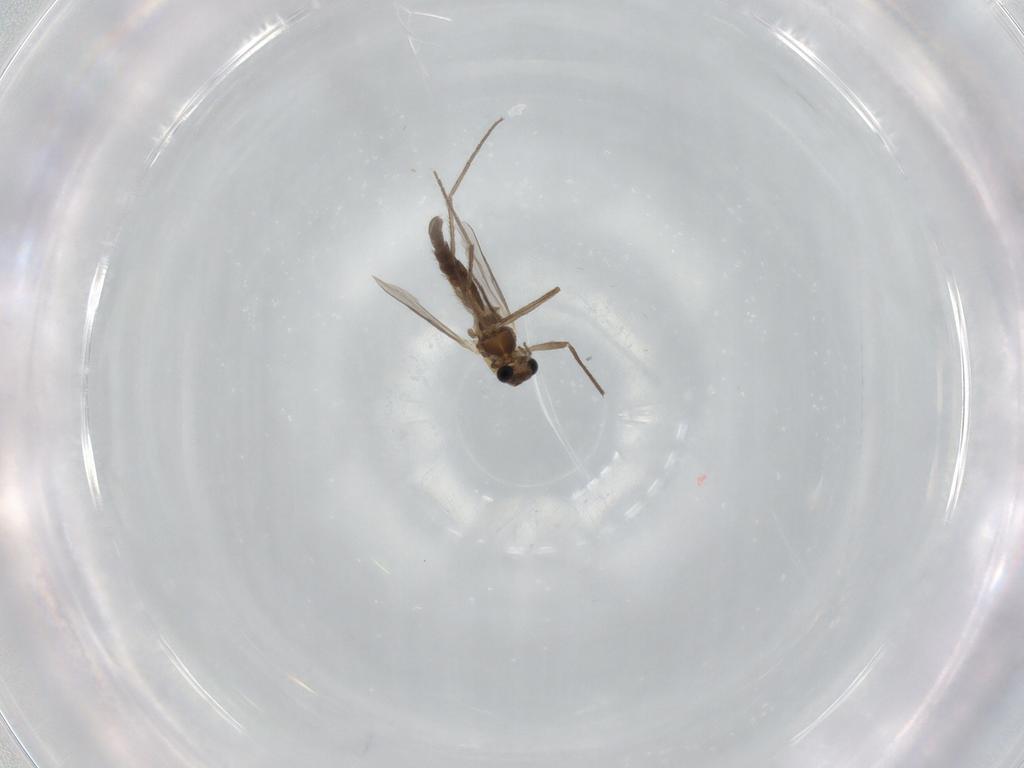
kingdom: Animalia
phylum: Arthropoda
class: Insecta
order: Diptera
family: Chironomidae
